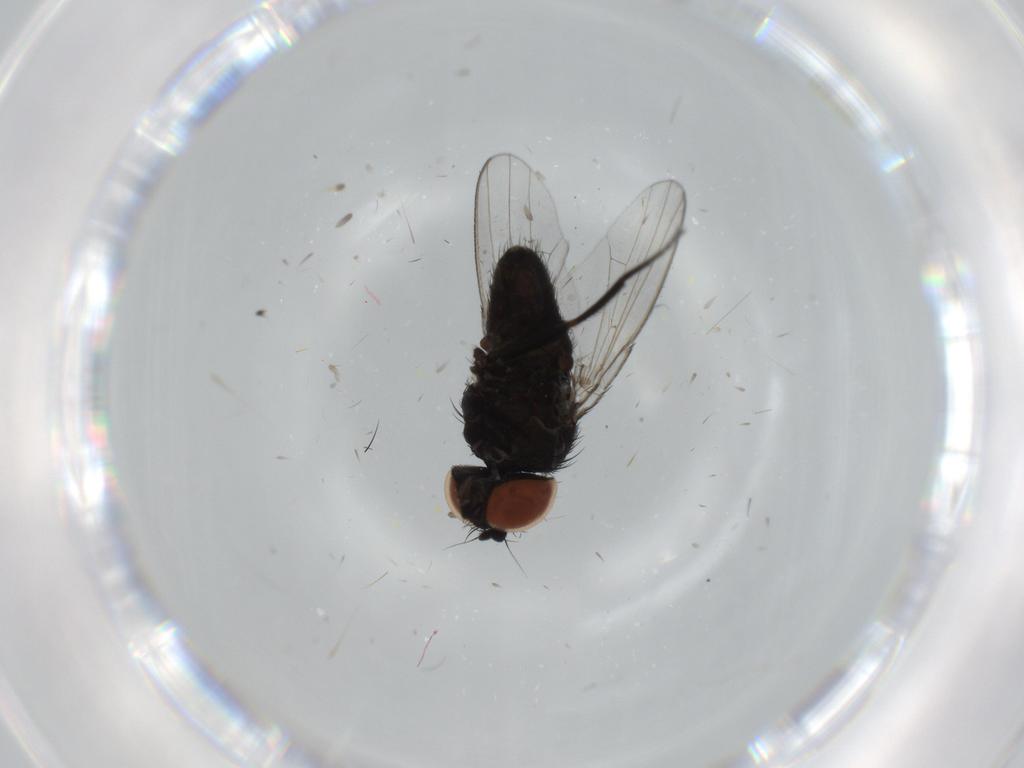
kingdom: Animalia
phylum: Arthropoda
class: Insecta
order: Diptera
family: Milichiidae
